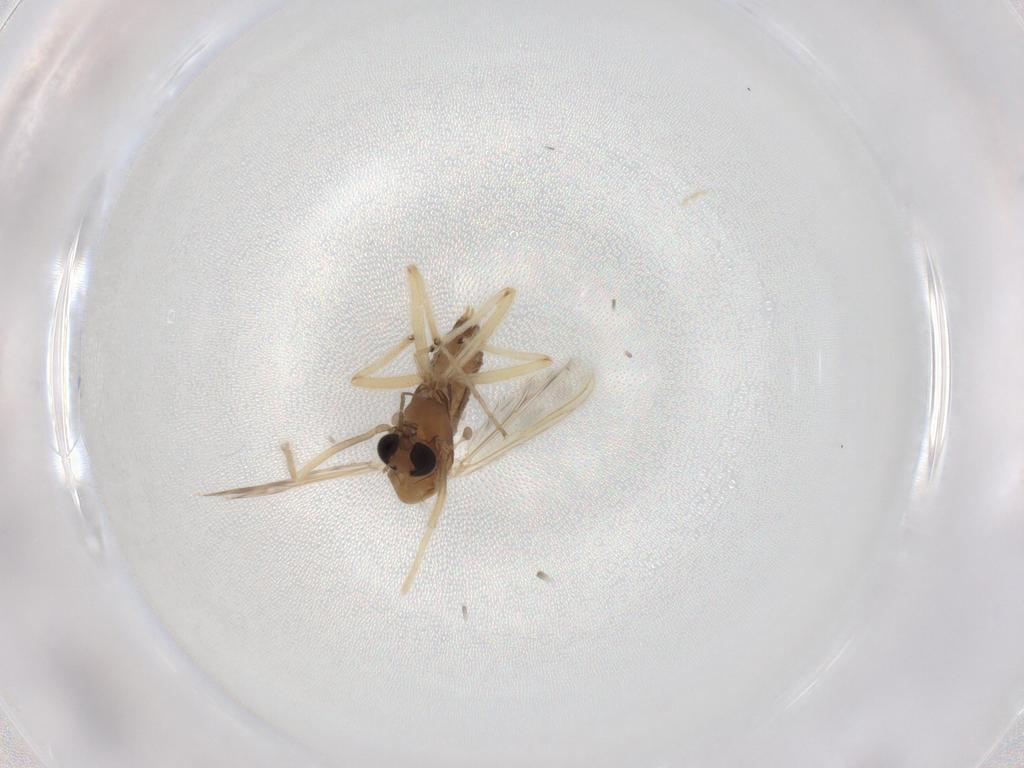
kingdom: Animalia
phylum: Arthropoda
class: Insecta
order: Diptera
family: Chironomidae
